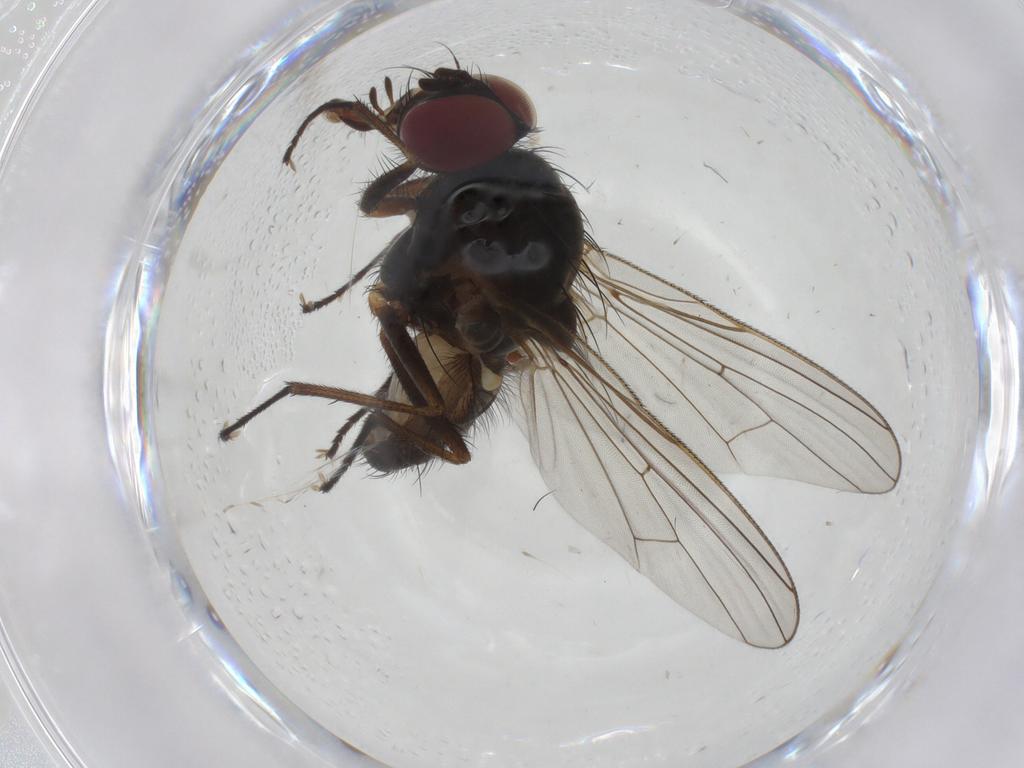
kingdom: Animalia
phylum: Arthropoda
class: Insecta
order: Diptera
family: Anthomyiidae
